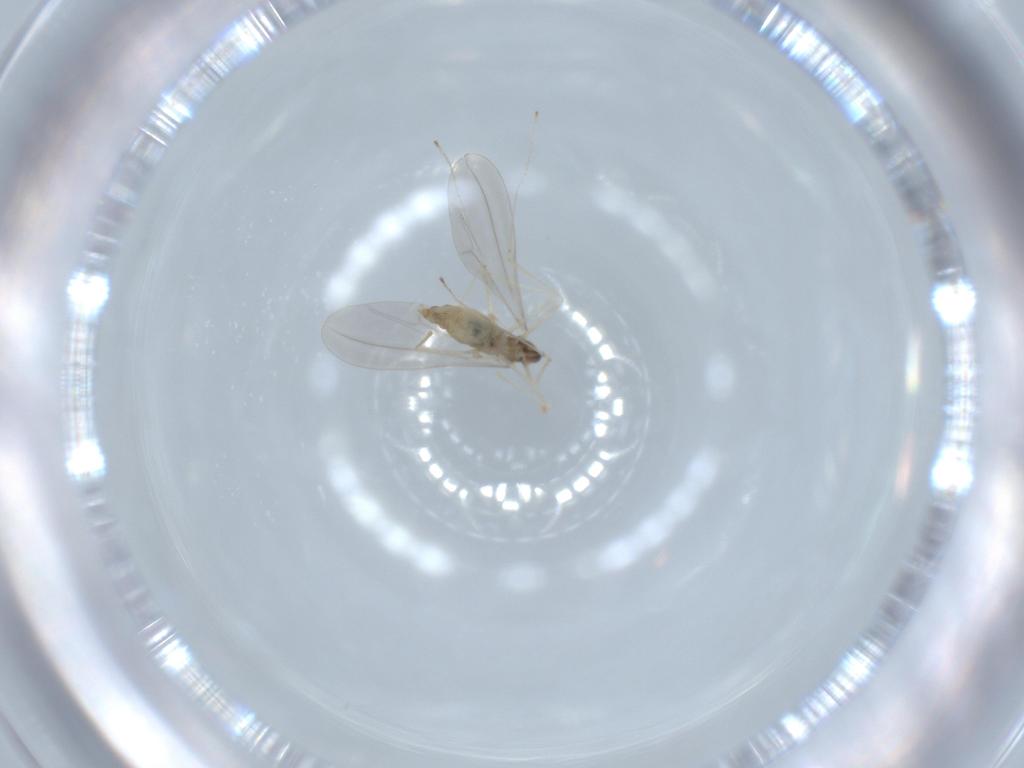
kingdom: Animalia
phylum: Arthropoda
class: Insecta
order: Diptera
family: Cecidomyiidae
